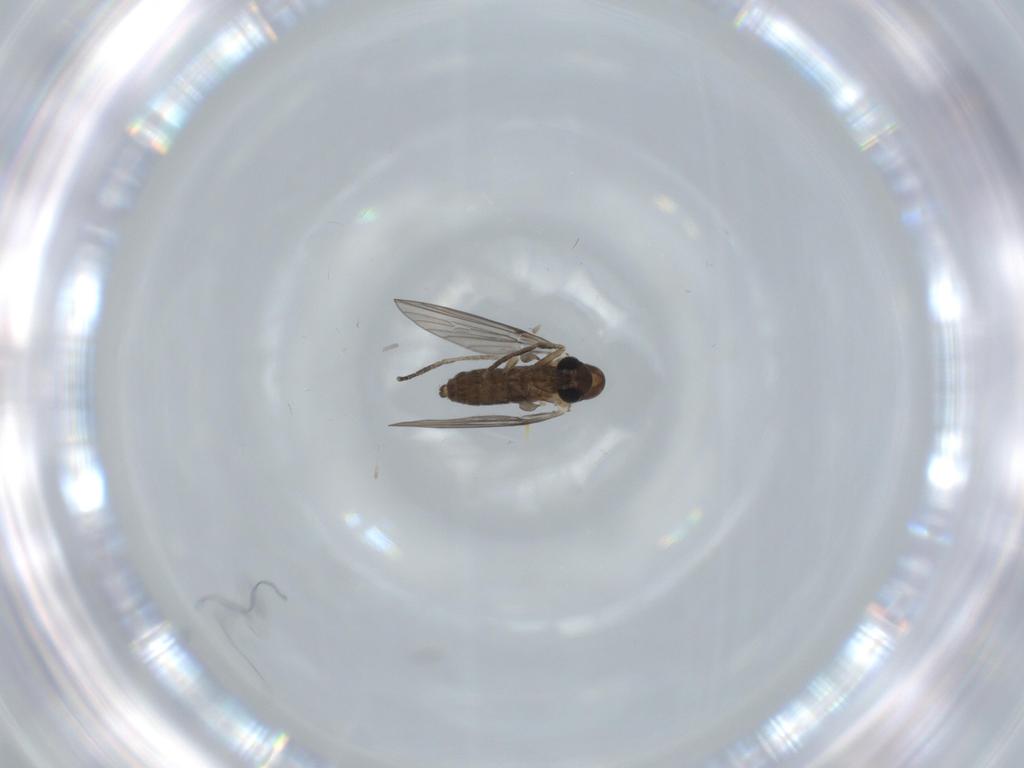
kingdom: Animalia
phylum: Arthropoda
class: Insecta
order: Diptera
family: Psychodidae
